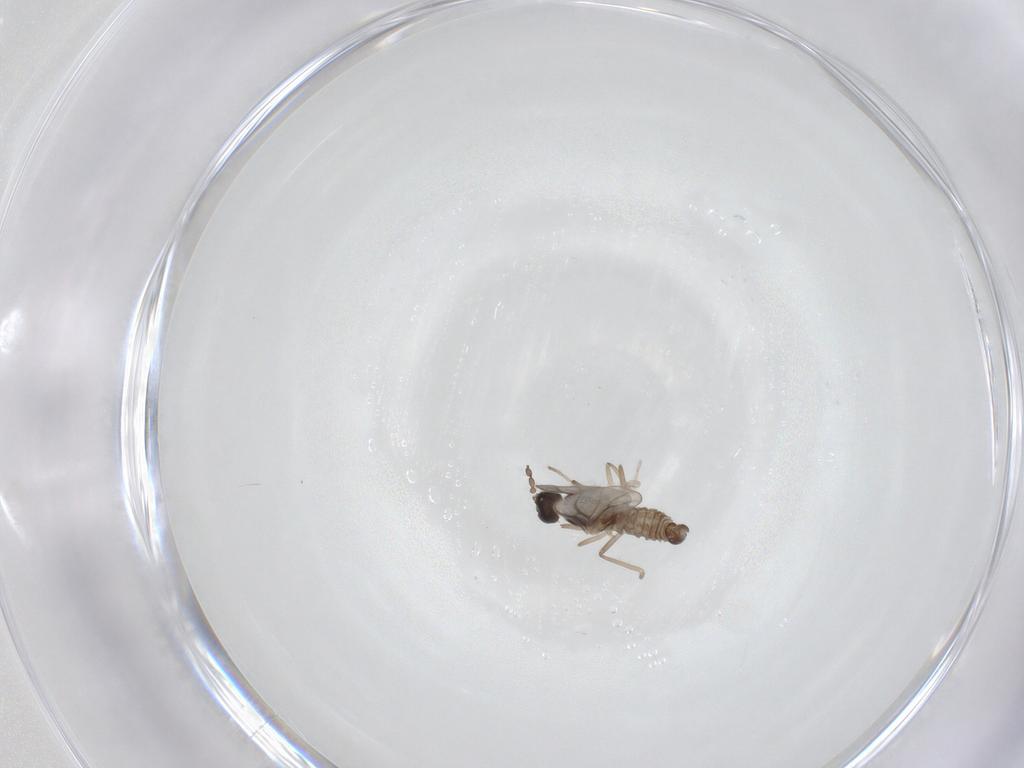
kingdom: Animalia
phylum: Arthropoda
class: Insecta
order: Diptera
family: Cecidomyiidae
